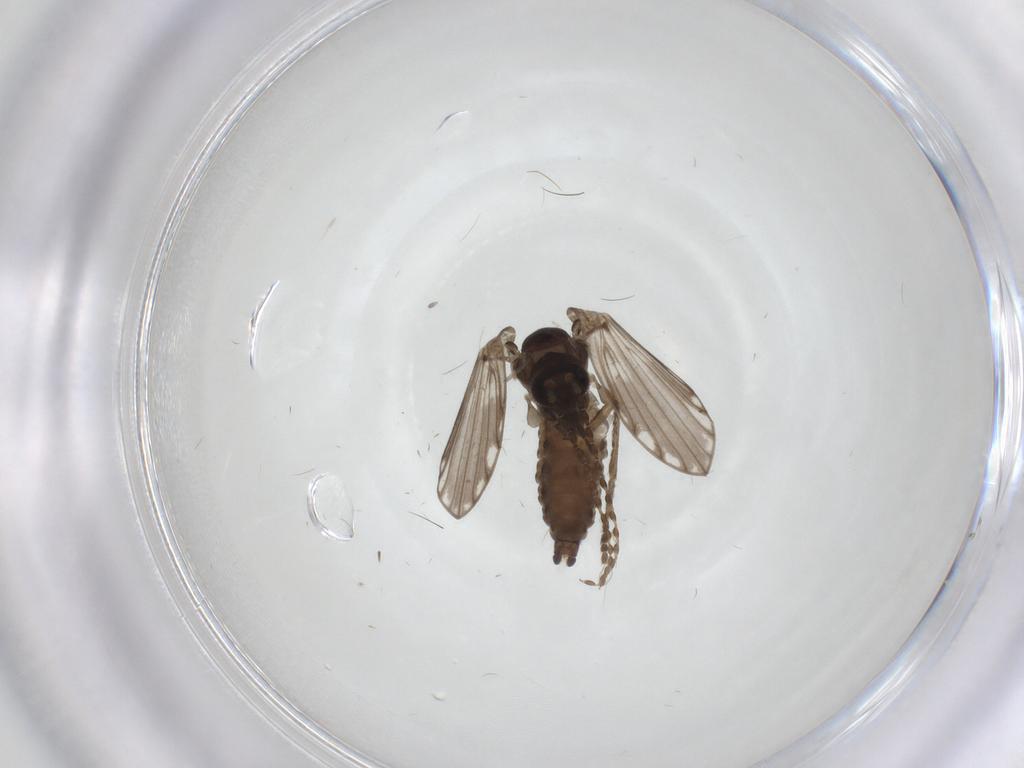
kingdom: Animalia
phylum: Arthropoda
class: Insecta
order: Diptera
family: Psychodidae
